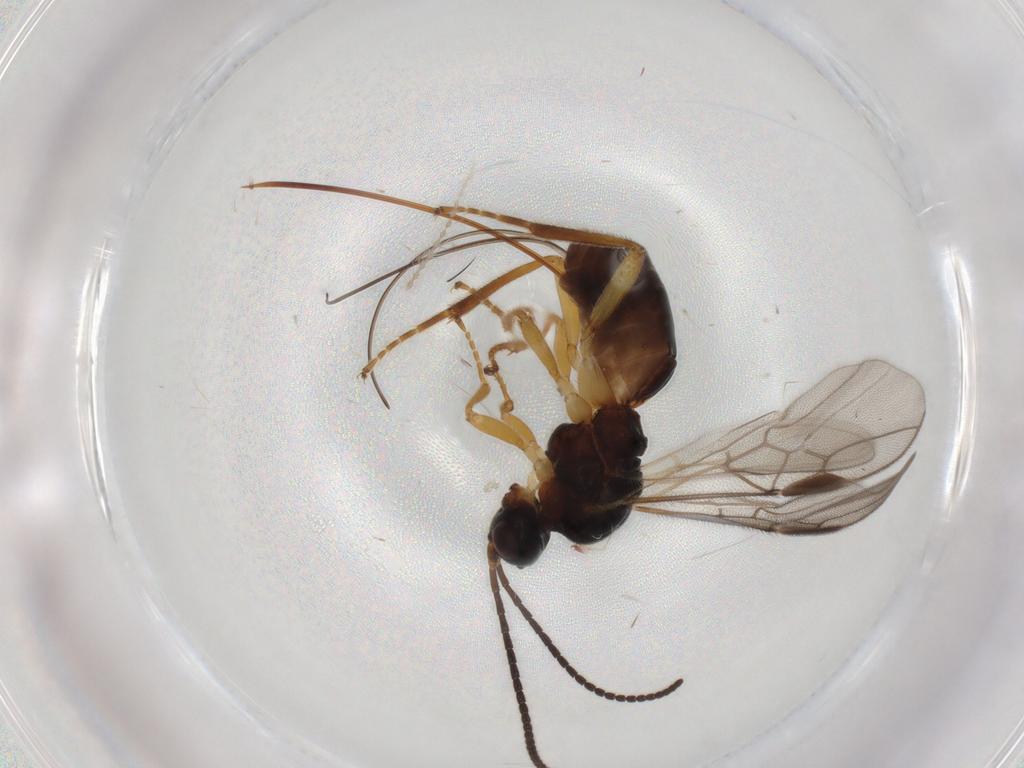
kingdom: Animalia
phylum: Arthropoda
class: Insecta
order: Hymenoptera
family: Braconidae
